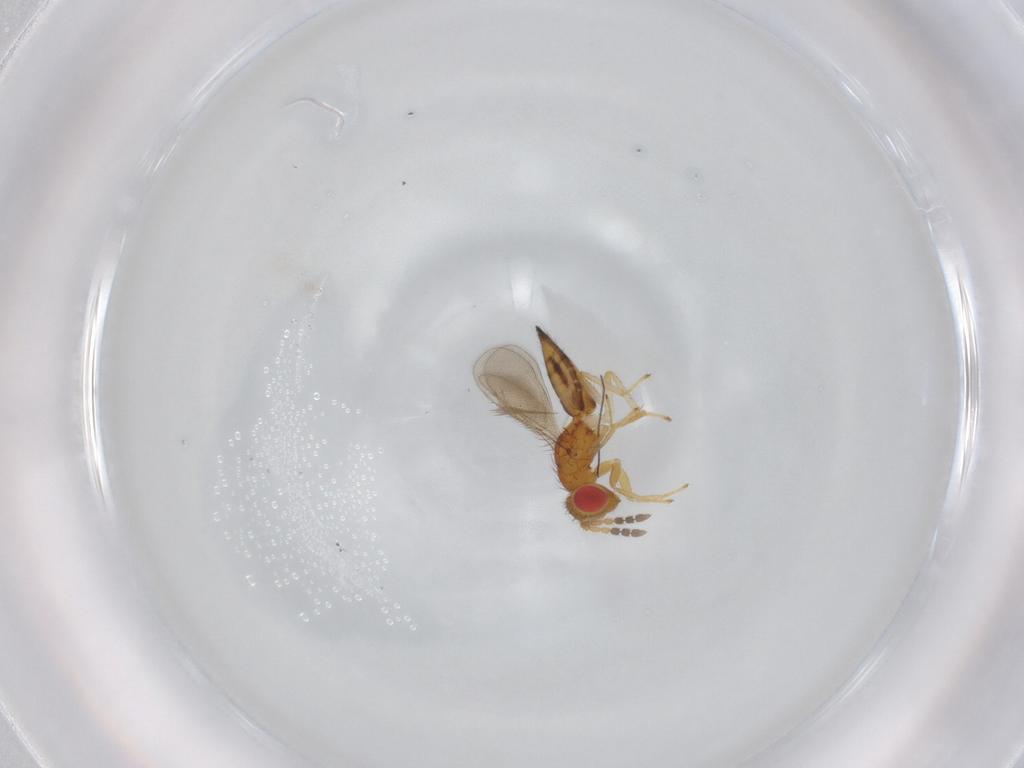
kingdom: Animalia
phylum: Arthropoda
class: Insecta
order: Hymenoptera
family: Eulophidae
